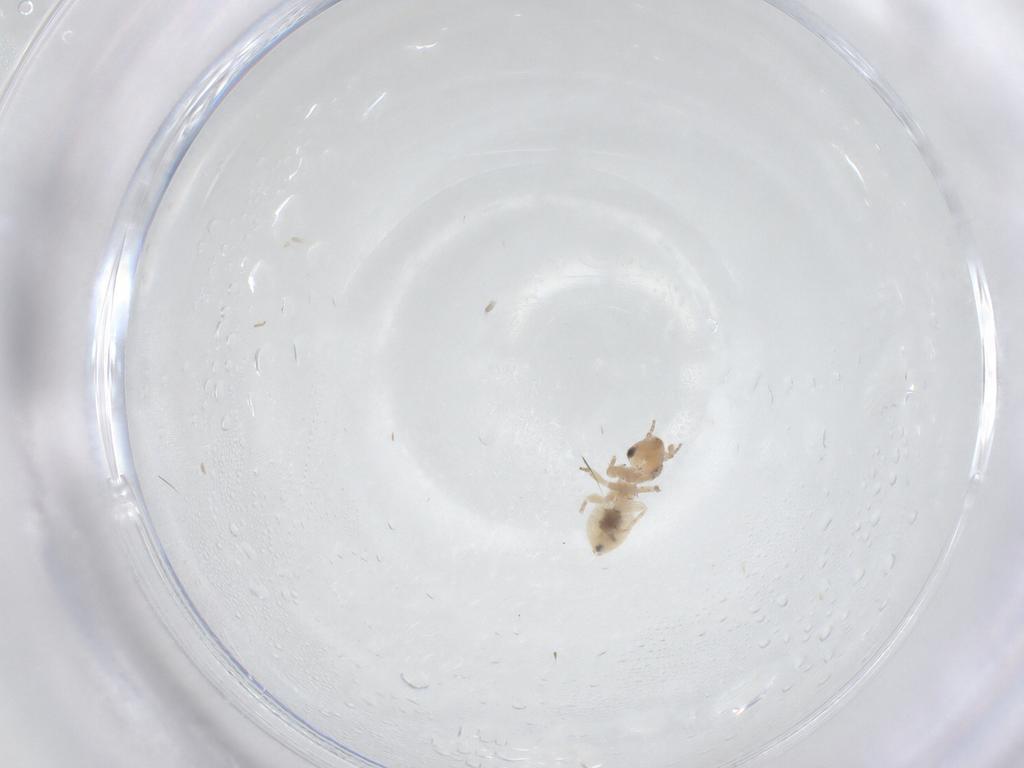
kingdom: Animalia
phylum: Arthropoda
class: Insecta
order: Psocodea
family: Lepidopsocidae
